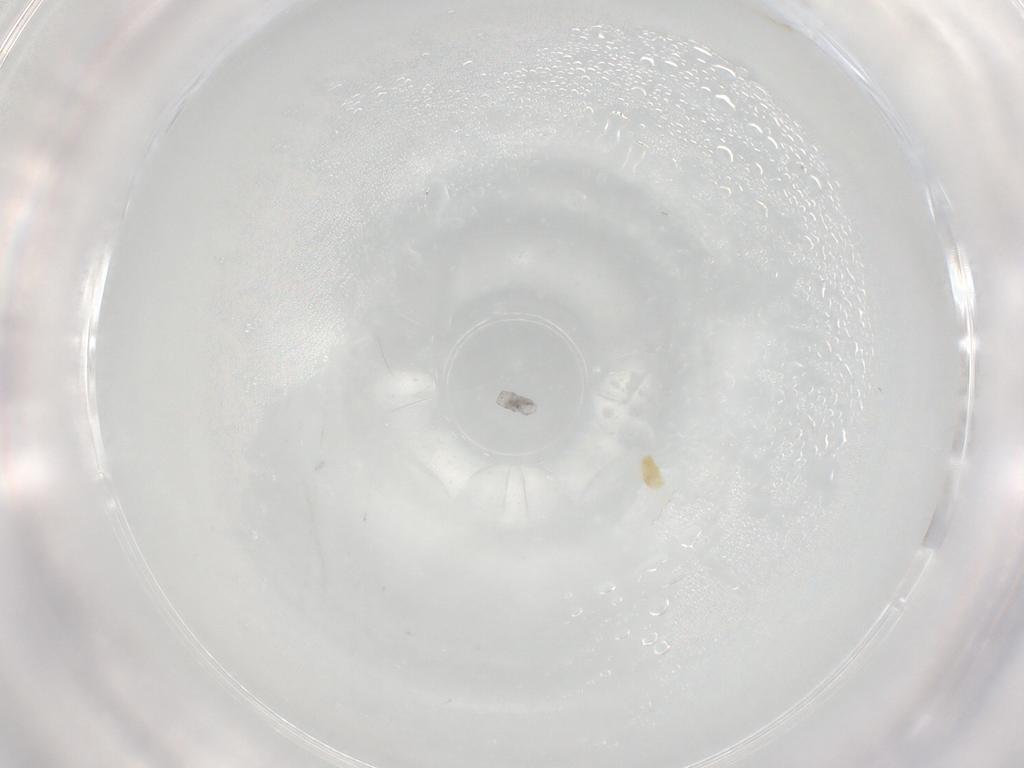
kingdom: Animalia
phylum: Arthropoda
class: Arachnida
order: Trombidiformes
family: Eupodidae
